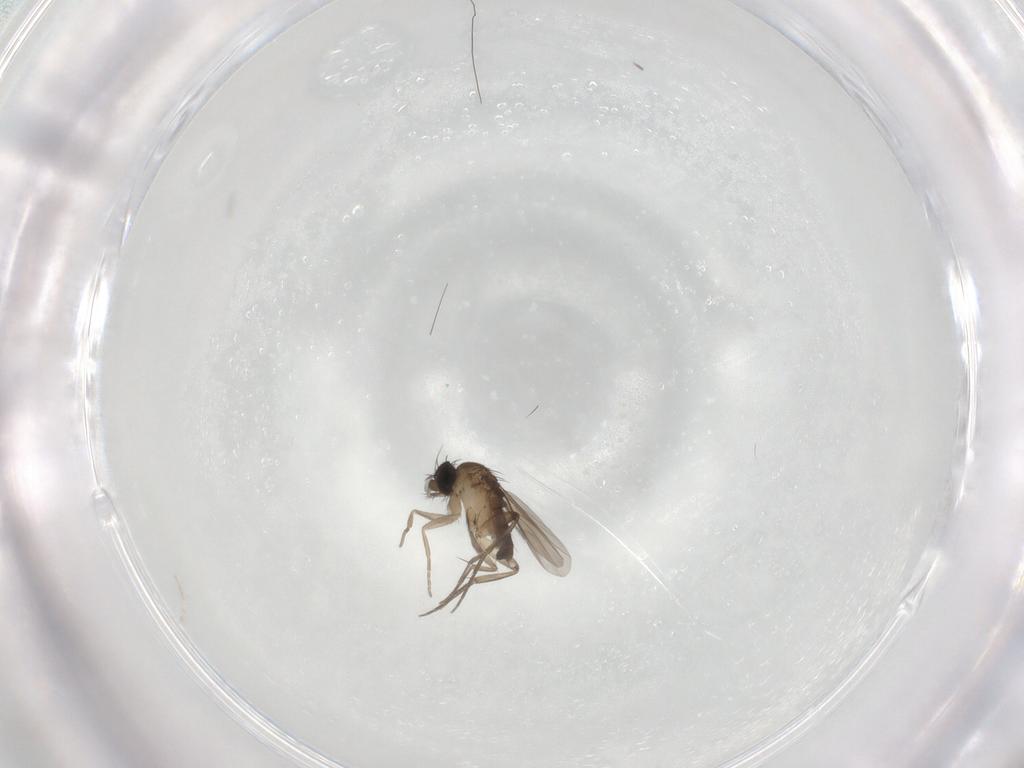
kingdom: Animalia
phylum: Arthropoda
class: Insecta
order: Diptera
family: Phoridae
